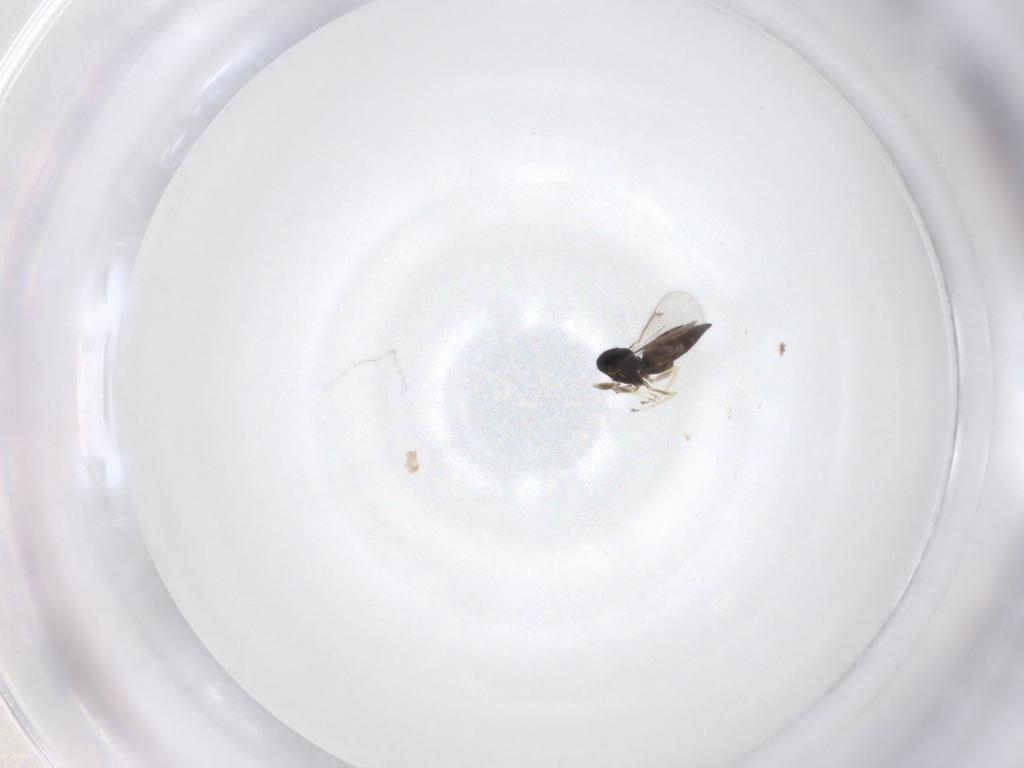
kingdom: Animalia
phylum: Arthropoda
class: Insecta
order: Hymenoptera
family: Eulophidae
